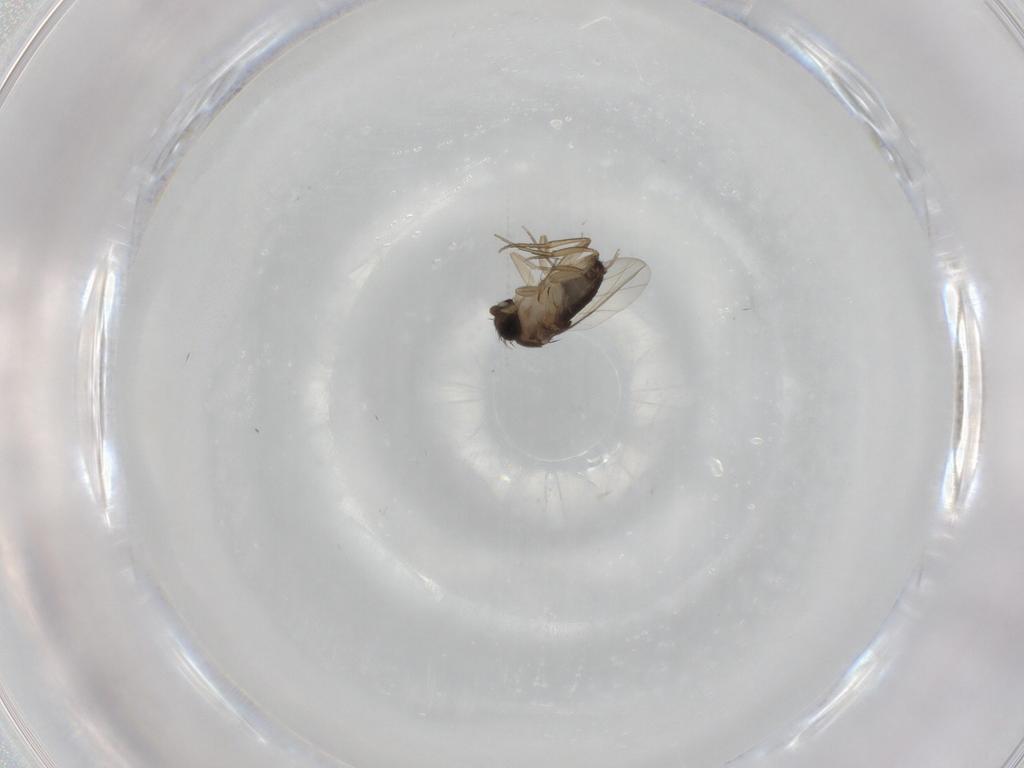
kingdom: Animalia
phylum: Arthropoda
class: Insecta
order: Diptera
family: Phoridae
